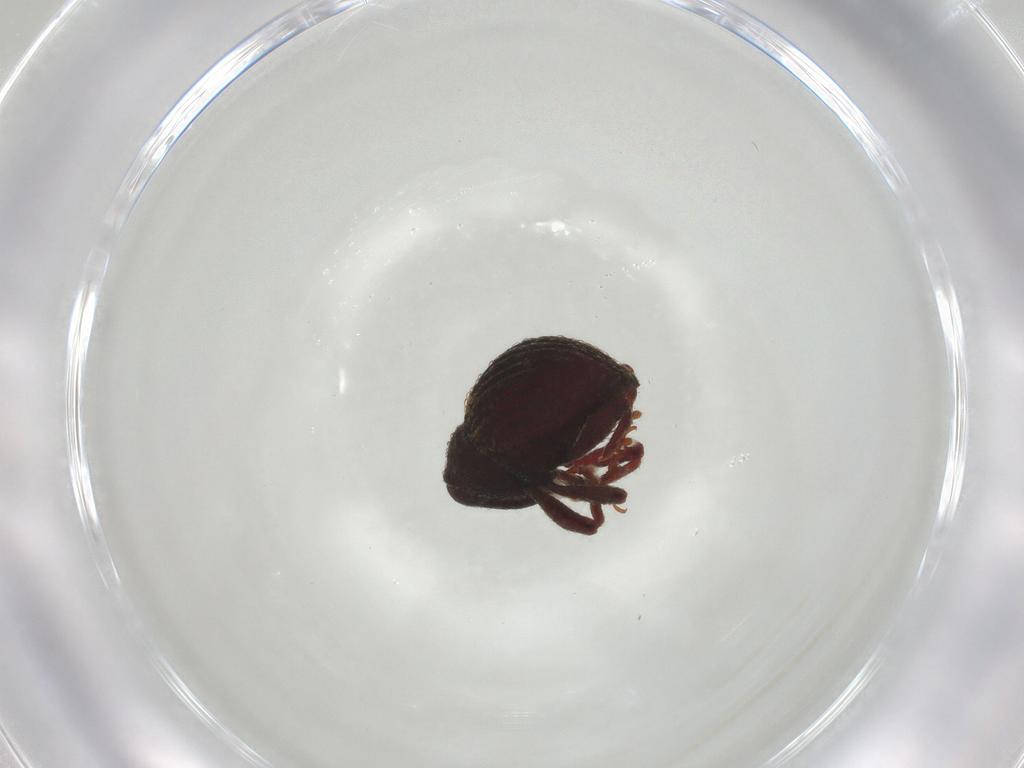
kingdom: Animalia
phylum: Arthropoda
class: Insecta
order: Coleoptera
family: Curculionidae
